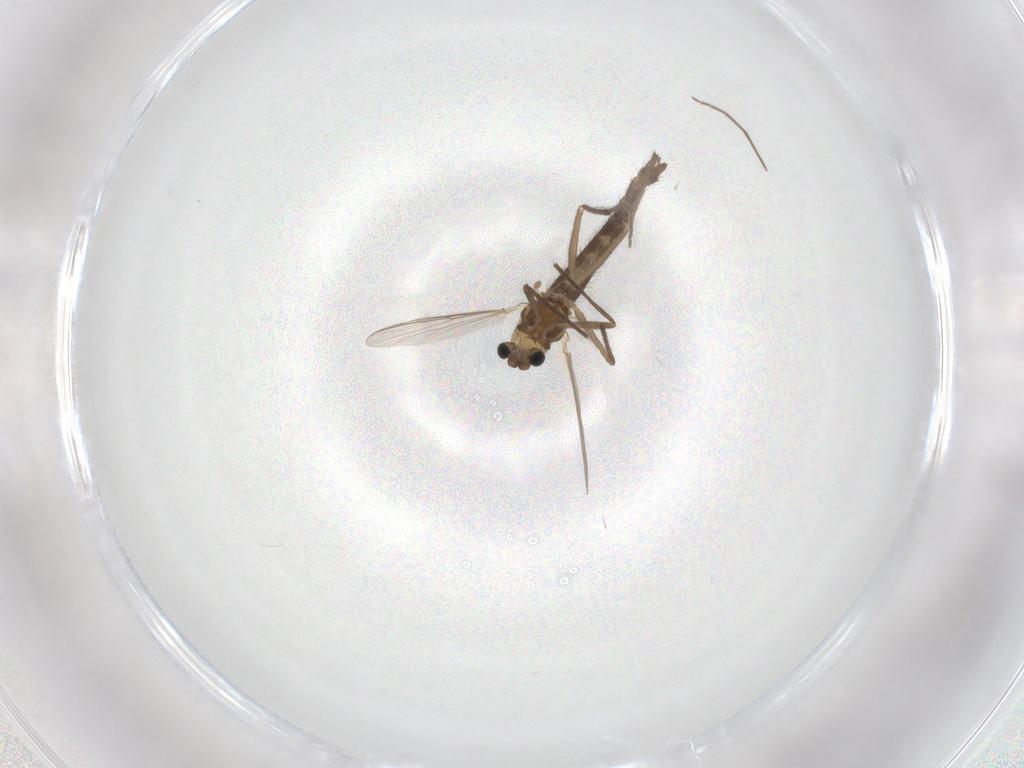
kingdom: Animalia
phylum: Arthropoda
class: Insecta
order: Diptera
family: Chironomidae
